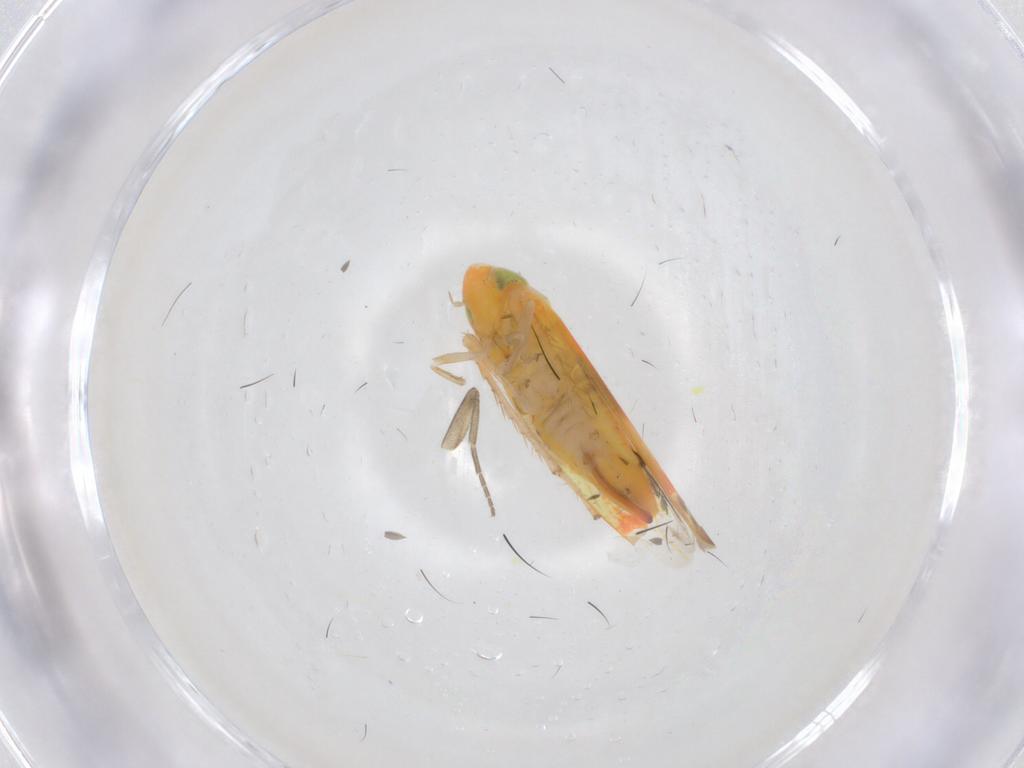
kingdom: Animalia
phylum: Arthropoda
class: Insecta
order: Hemiptera
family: Cicadellidae
